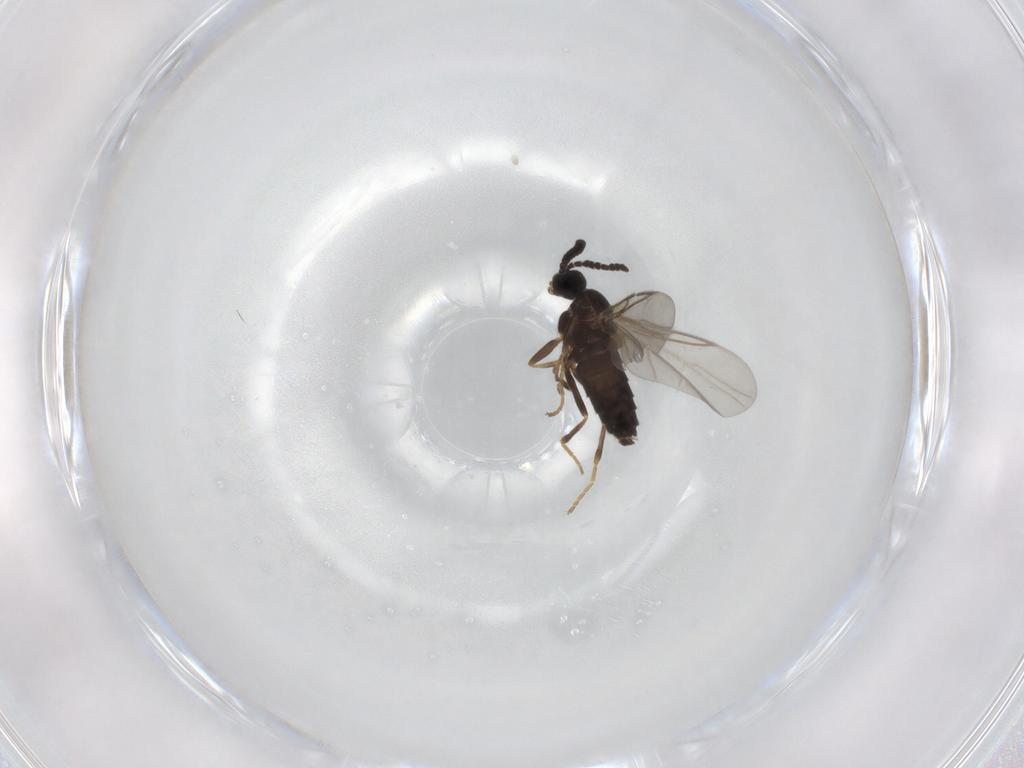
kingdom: Animalia
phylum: Arthropoda
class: Insecta
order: Diptera
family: Scatopsidae
